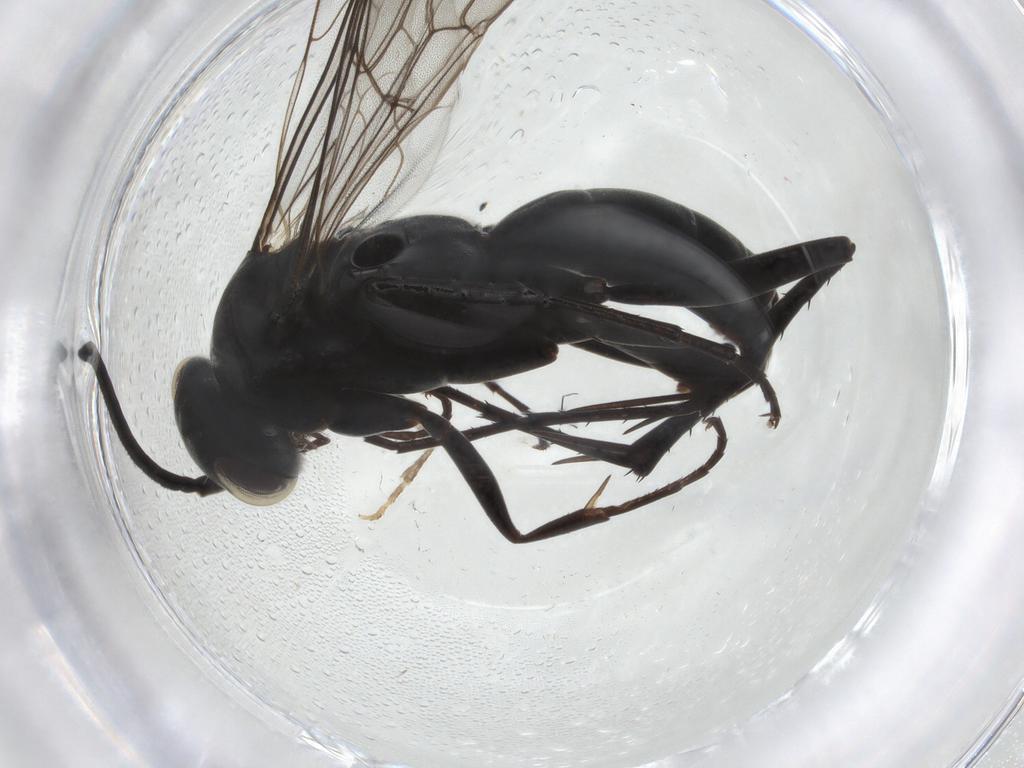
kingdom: Animalia
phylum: Arthropoda
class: Insecta
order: Hymenoptera
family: Pompilidae
